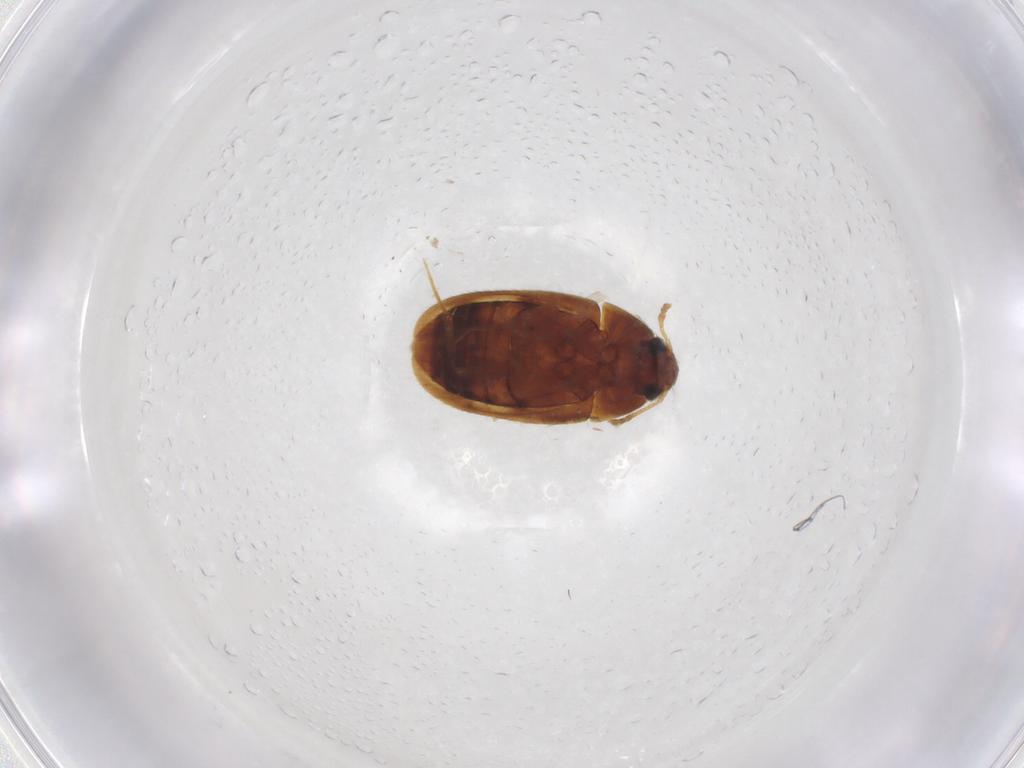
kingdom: Animalia
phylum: Arthropoda
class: Insecta
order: Coleoptera
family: Mycetophagidae
